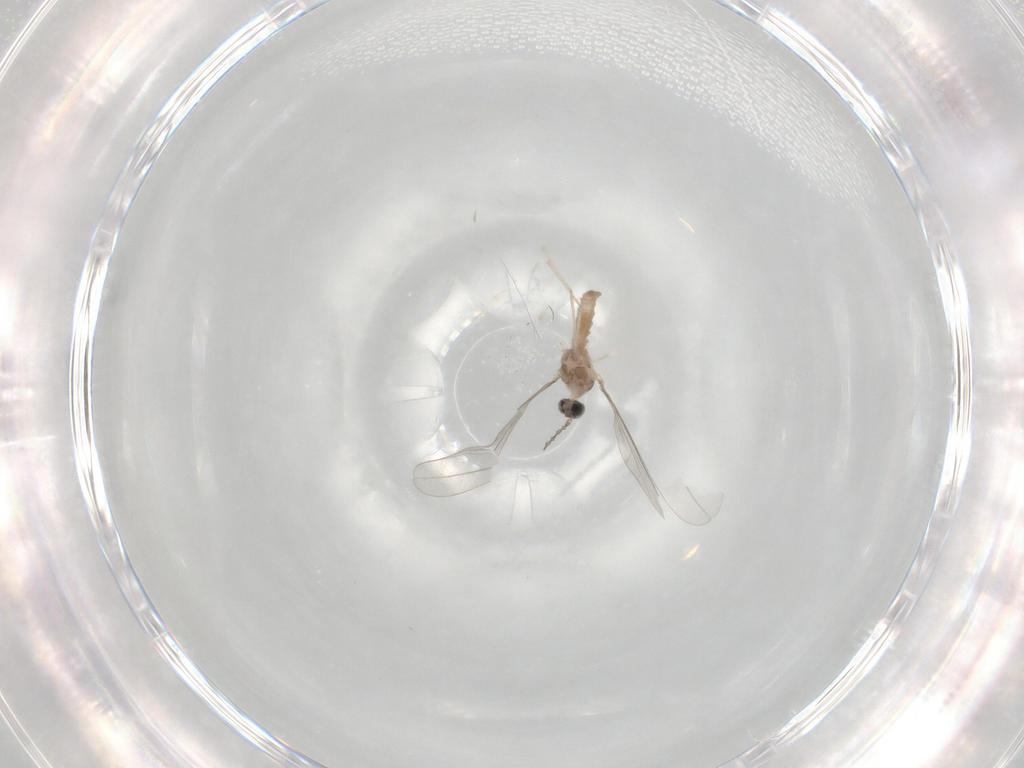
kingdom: Animalia
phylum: Arthropoda
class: Insecta
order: Diptera
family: Cecidomyiidae
